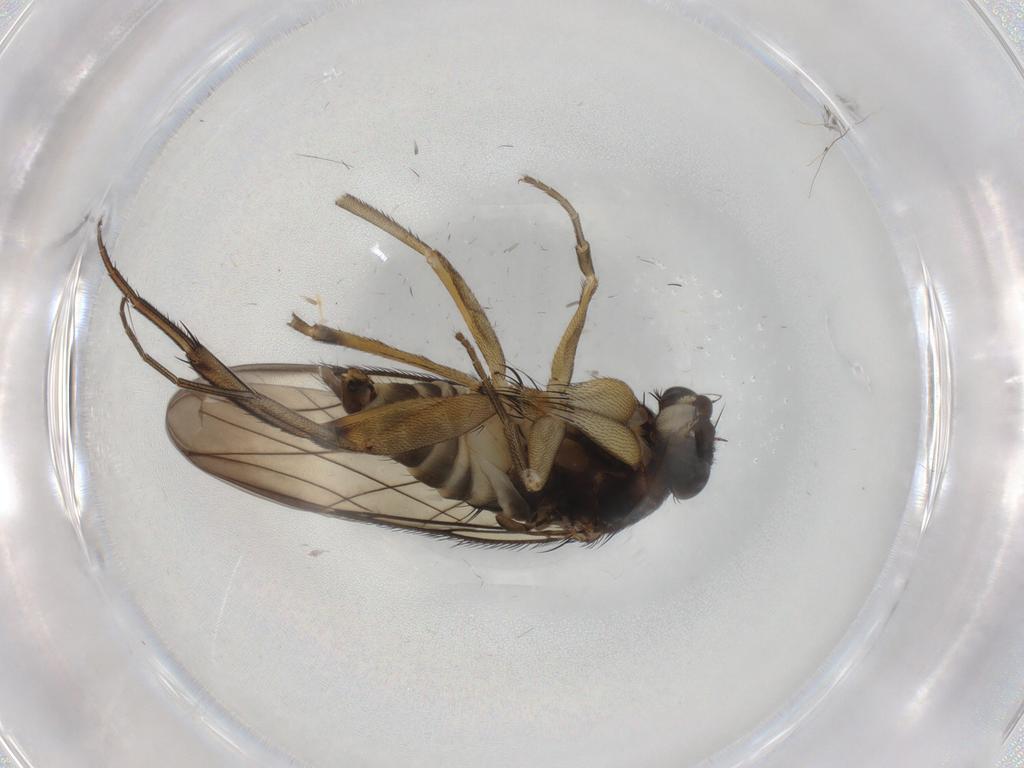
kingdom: Animalia
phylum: Arthropoda
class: Insecta
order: Diptera
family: Phoridae
